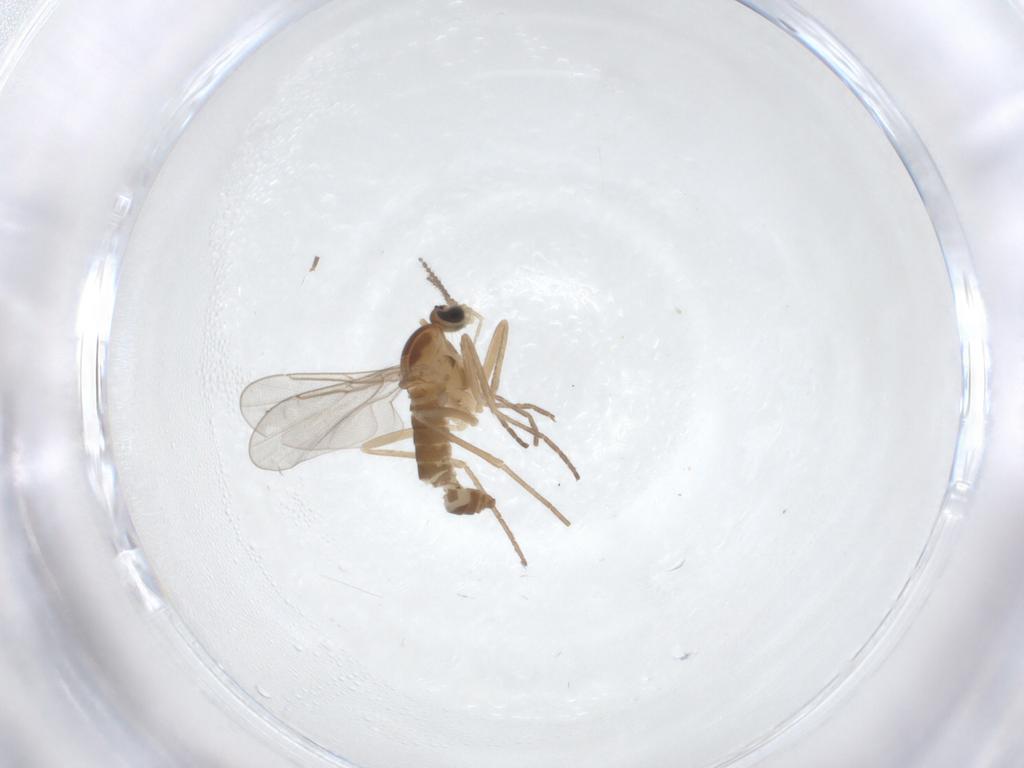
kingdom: Animalia
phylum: Arthropoda
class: Insecta
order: Diptera
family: Cecidomyiidae
